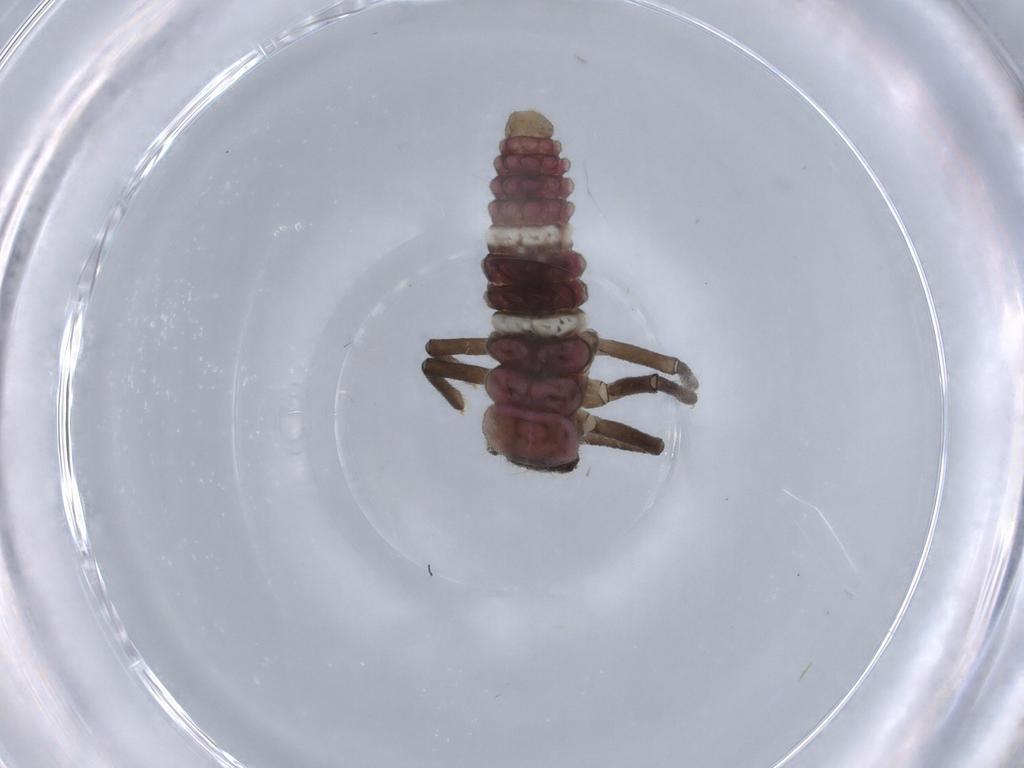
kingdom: Animalia
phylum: Arthropoda
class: Insecta
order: Coleoptera
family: Coccinellidae
